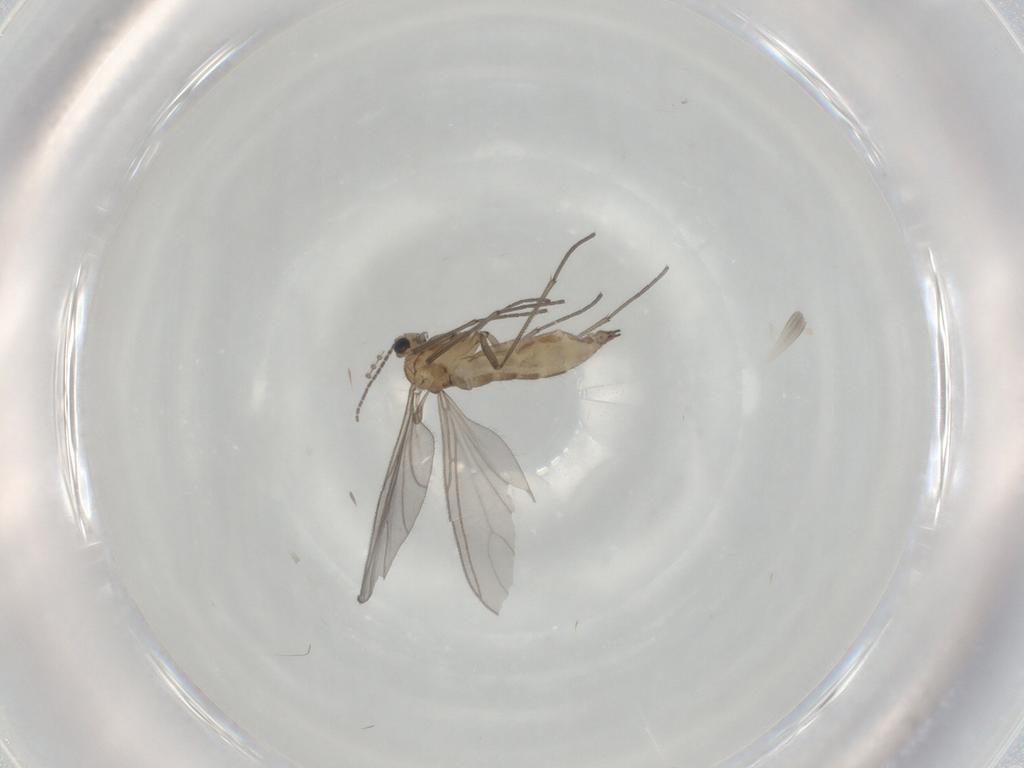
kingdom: Animalia
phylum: Arthropoda
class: Insecta
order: Diptera
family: Sciaridae
